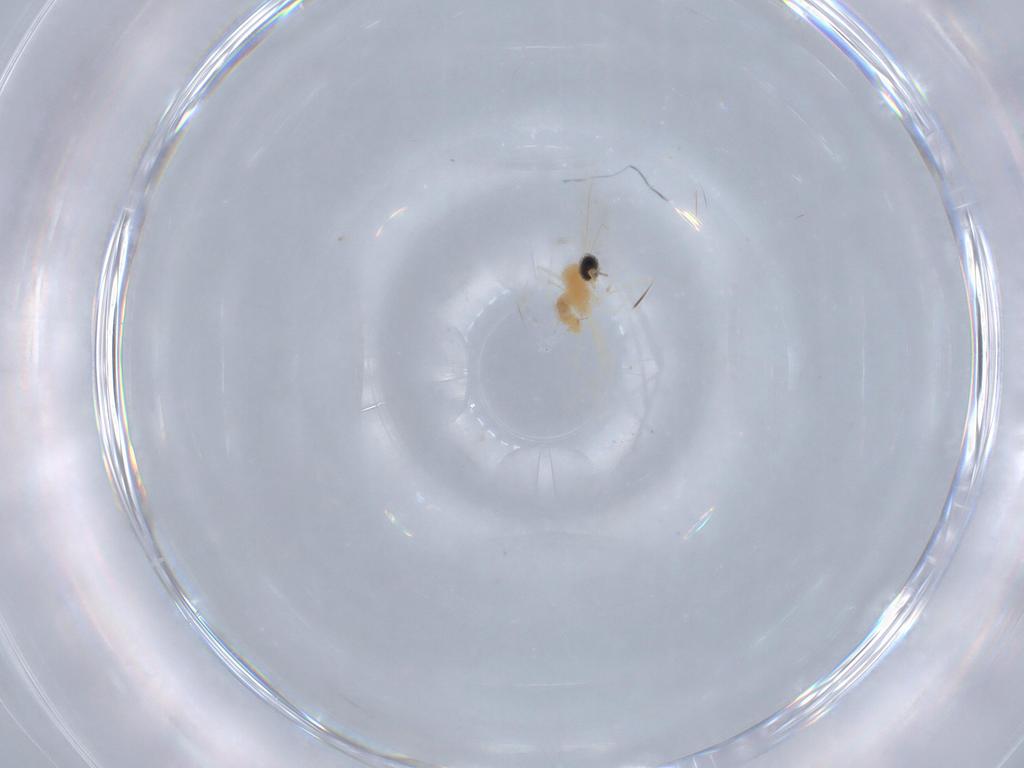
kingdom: Animalia
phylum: Arthropoda
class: Insecta
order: Diptera
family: Cecidomyiidae
